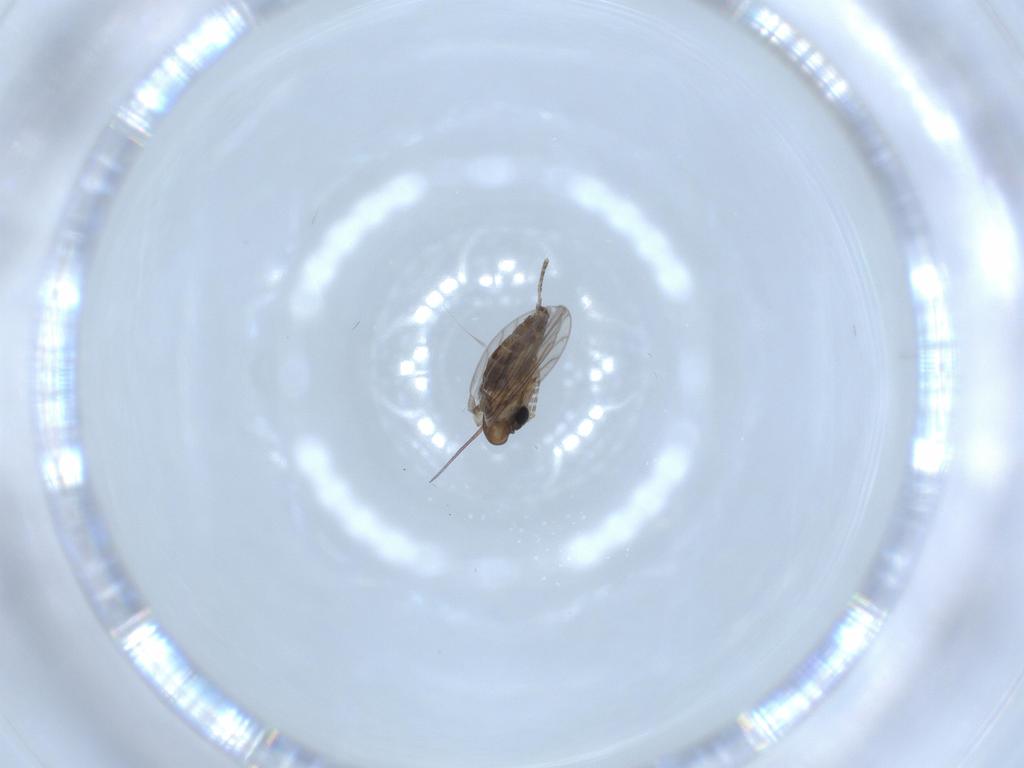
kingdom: Animalia
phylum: Arthropoda
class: Insecta
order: Diptera
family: Psychodidae
